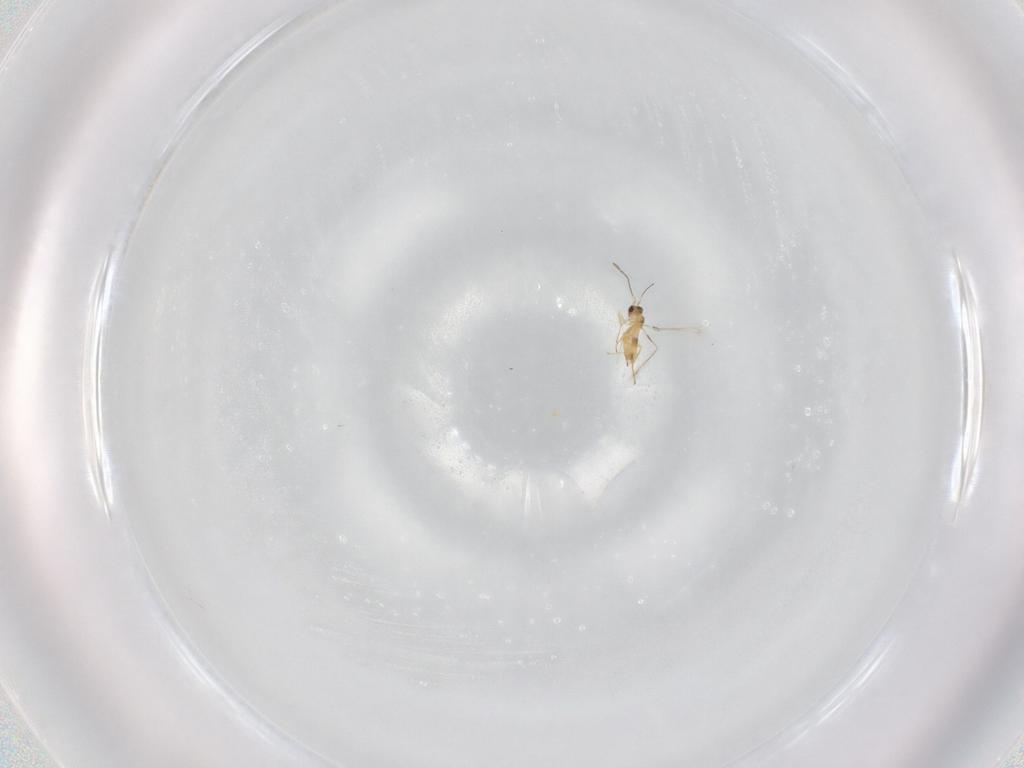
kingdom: Animalia
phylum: Arthropoda
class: Insecta
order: Hymenoptera
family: Mymaridae
